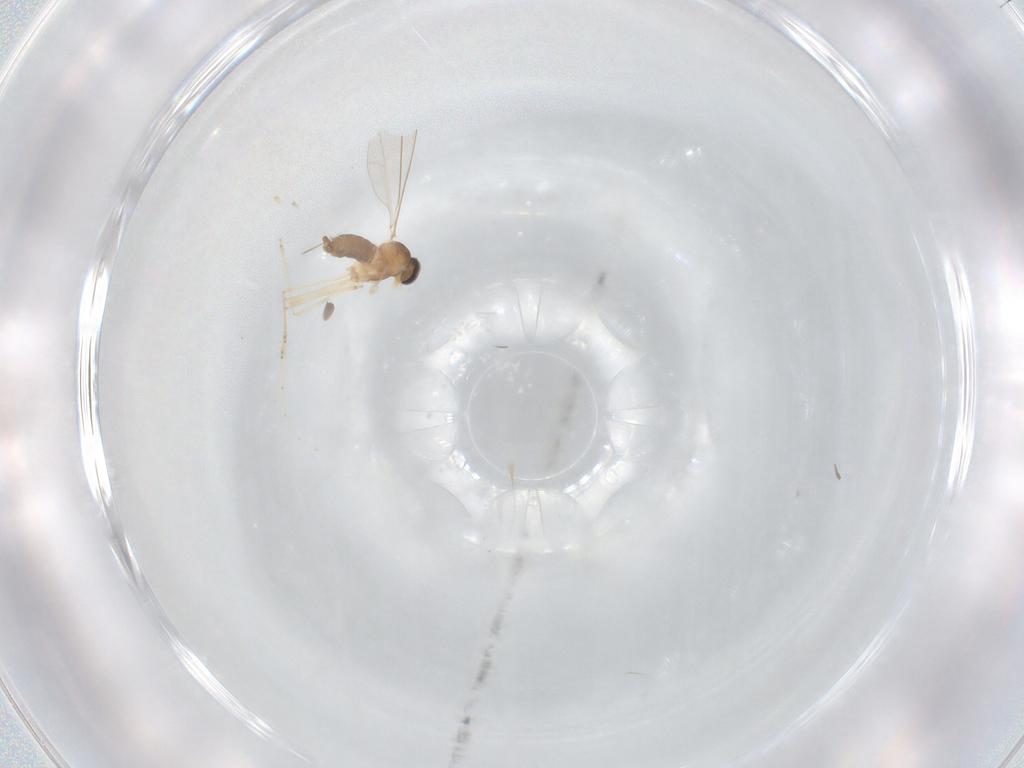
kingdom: Animalia
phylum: Arthropoda
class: Insecta
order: Diptera
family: Cecidomyiidae
